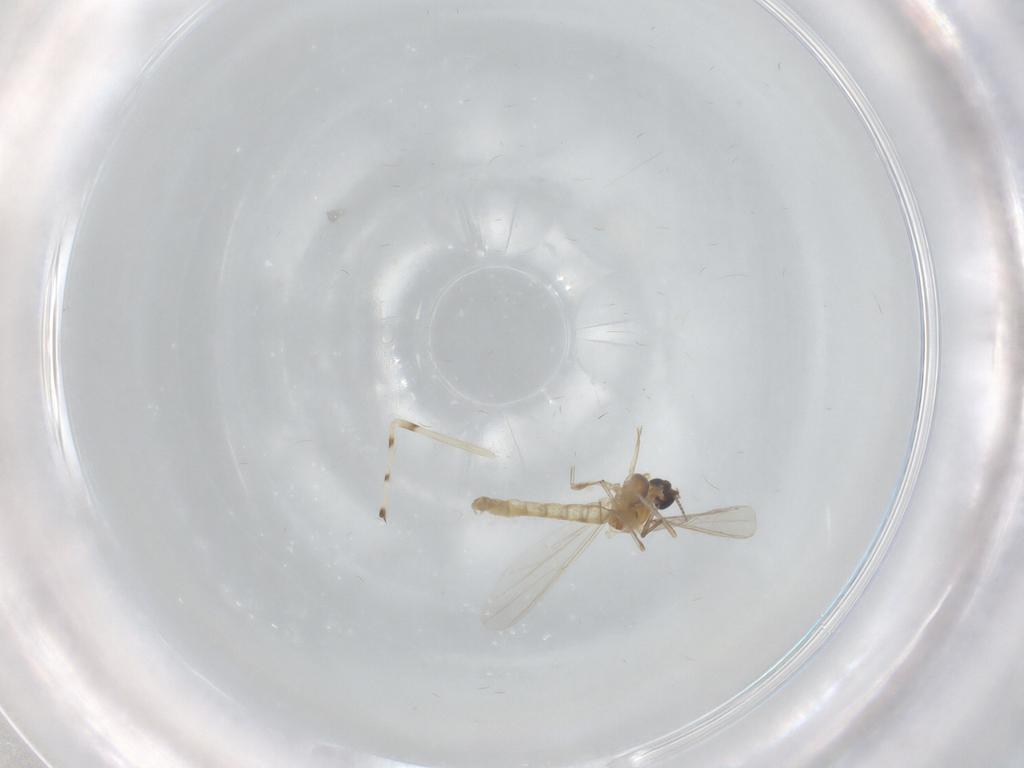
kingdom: Animalia
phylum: Arthropoda
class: Insecta
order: Diptera
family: Chironomidae
